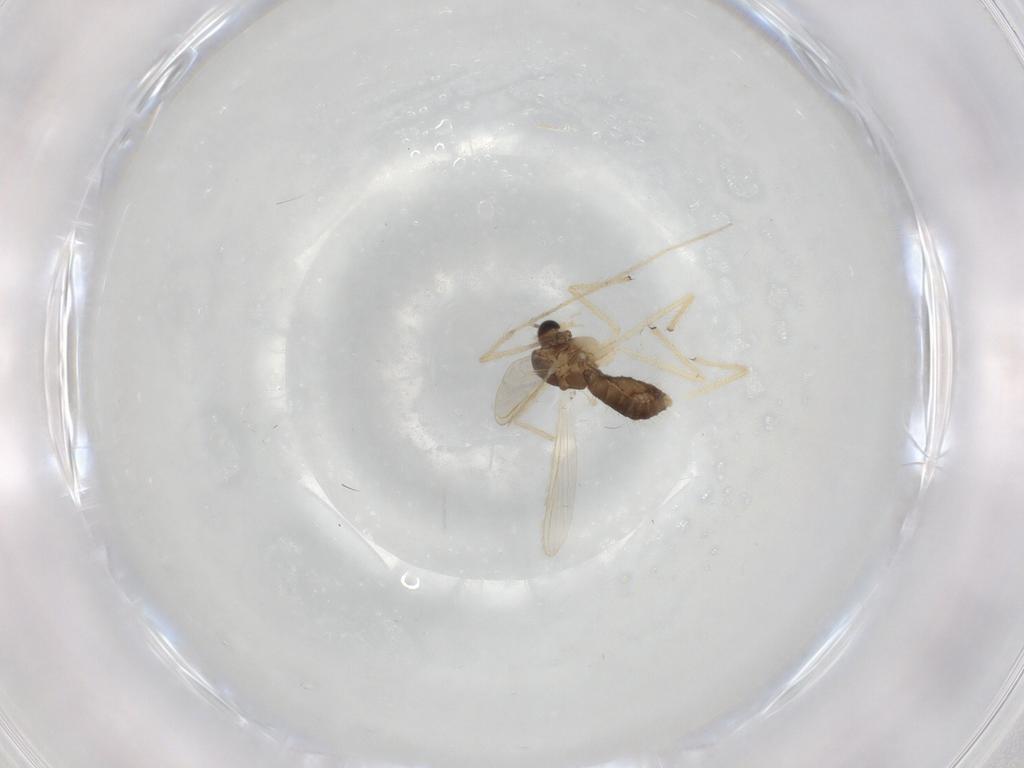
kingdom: Animalia
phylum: Arthropoda
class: Insecta
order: Diptera
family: Chironomidae
